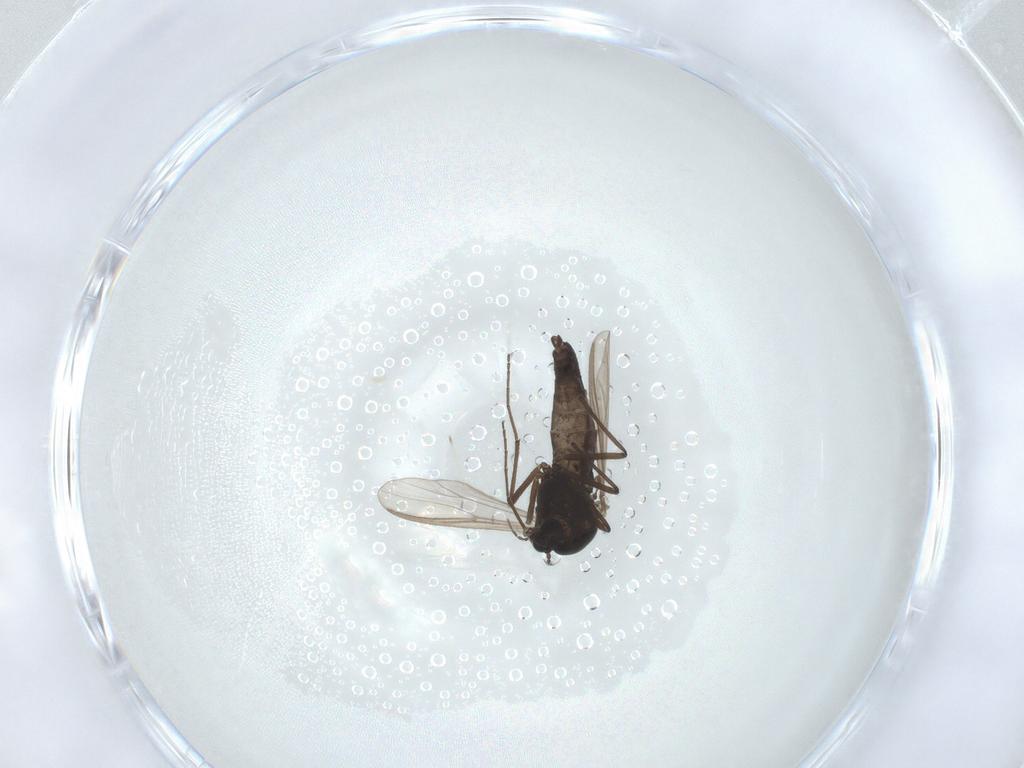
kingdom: Animalia
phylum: Arthropoda
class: Insecta
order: Diptera
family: Chironomidae
